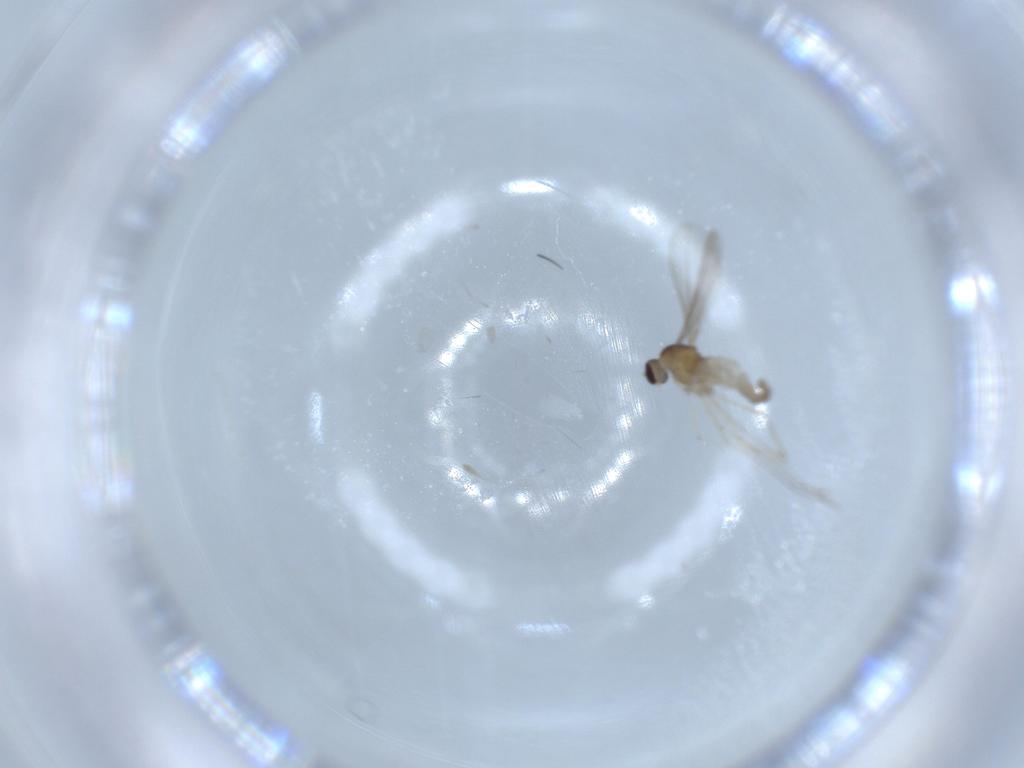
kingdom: Animalia
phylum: Arthropoda
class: Insecta
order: Diptera
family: Cecidomyiidae
